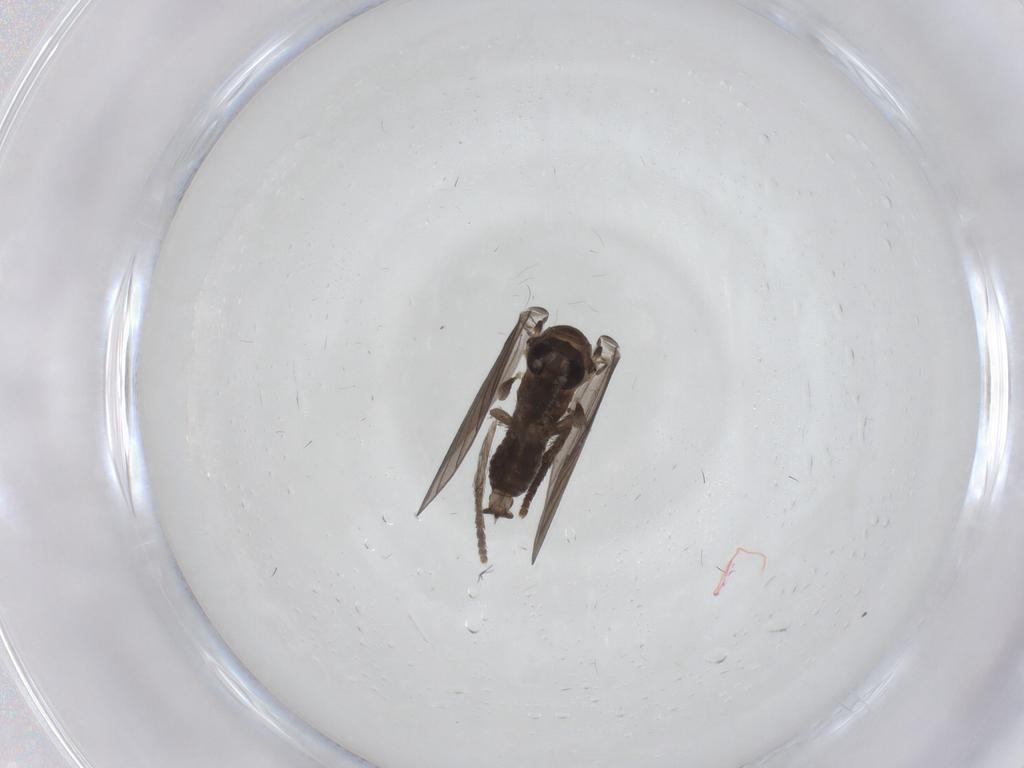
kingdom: Animalia
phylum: Arthropoda
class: Insecta
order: Diptera
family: Psychodidae
